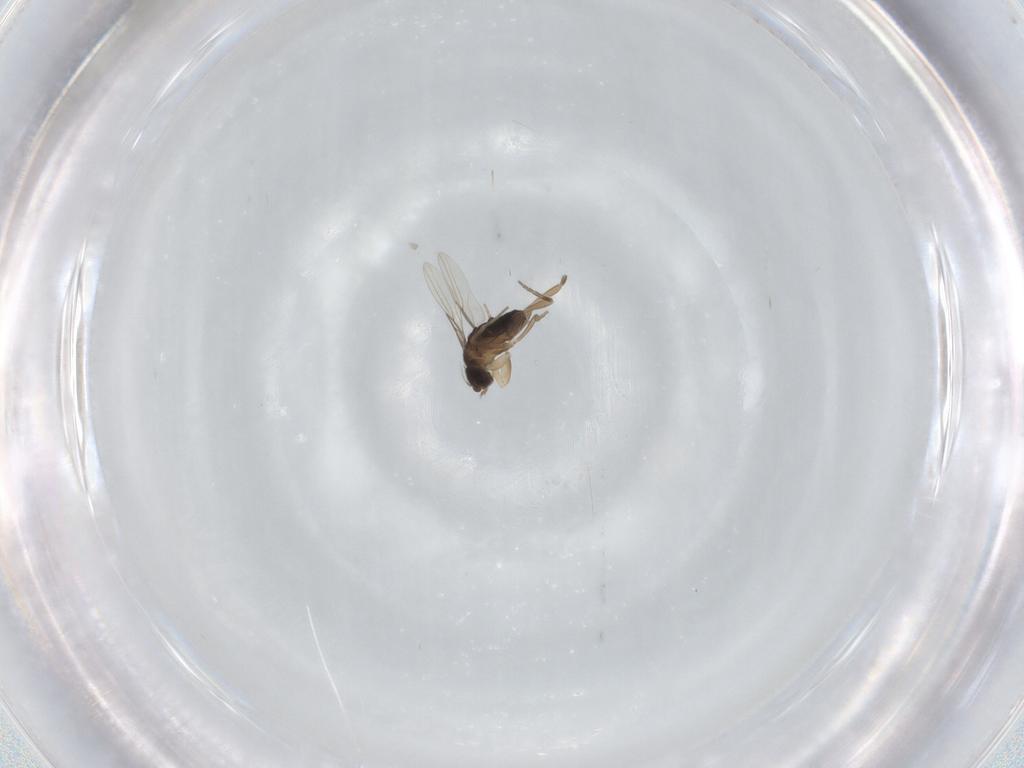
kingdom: Animalia
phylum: Arthropoda
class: Insecta
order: Diptera
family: Phoridae
